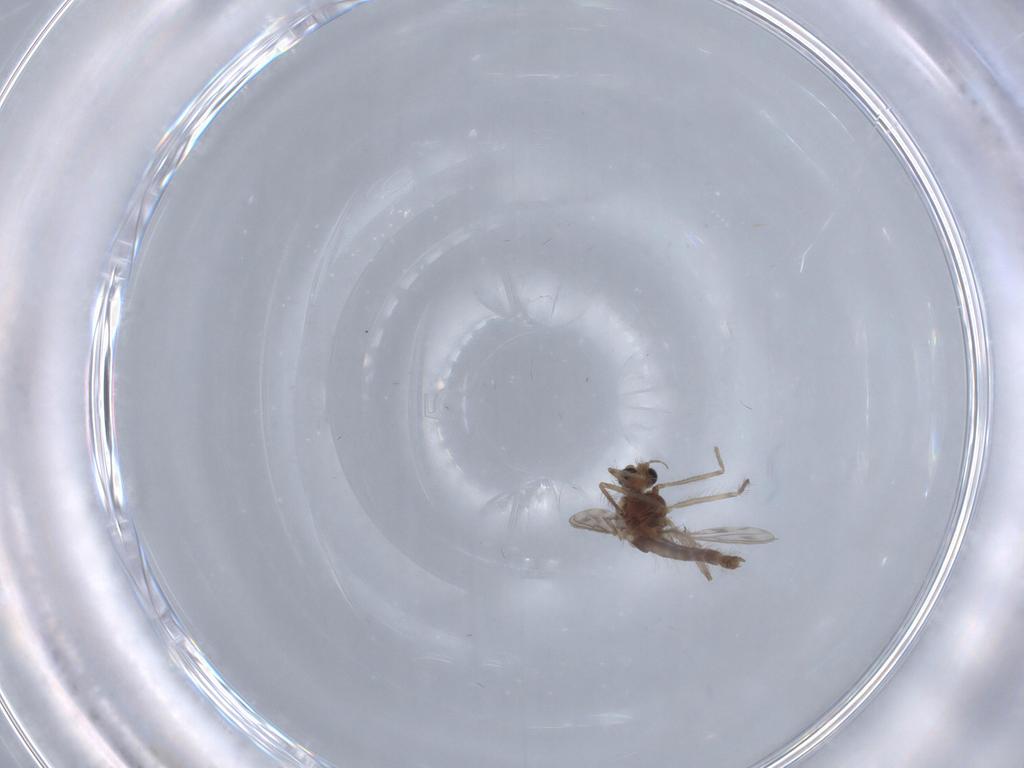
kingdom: Animalia
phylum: Arthropoda
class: Insecta
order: Diptera
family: Chironomidae
